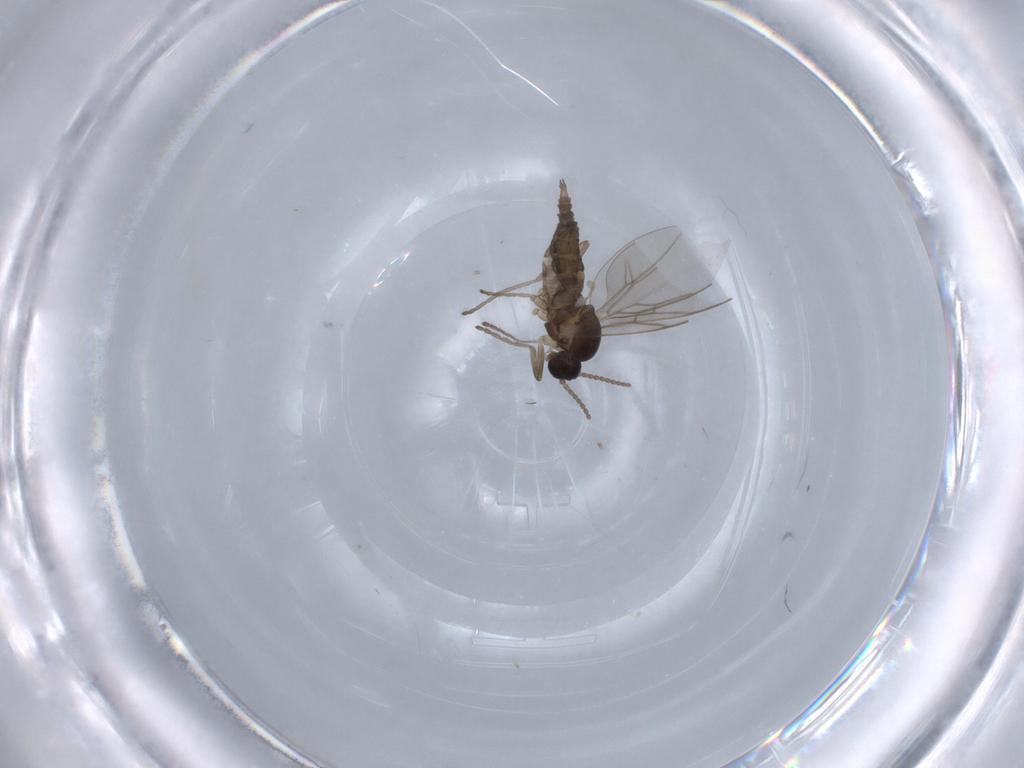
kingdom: Animalia
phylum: Arthropoda
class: Insecta
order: Diptera
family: Cecidomyiidae
